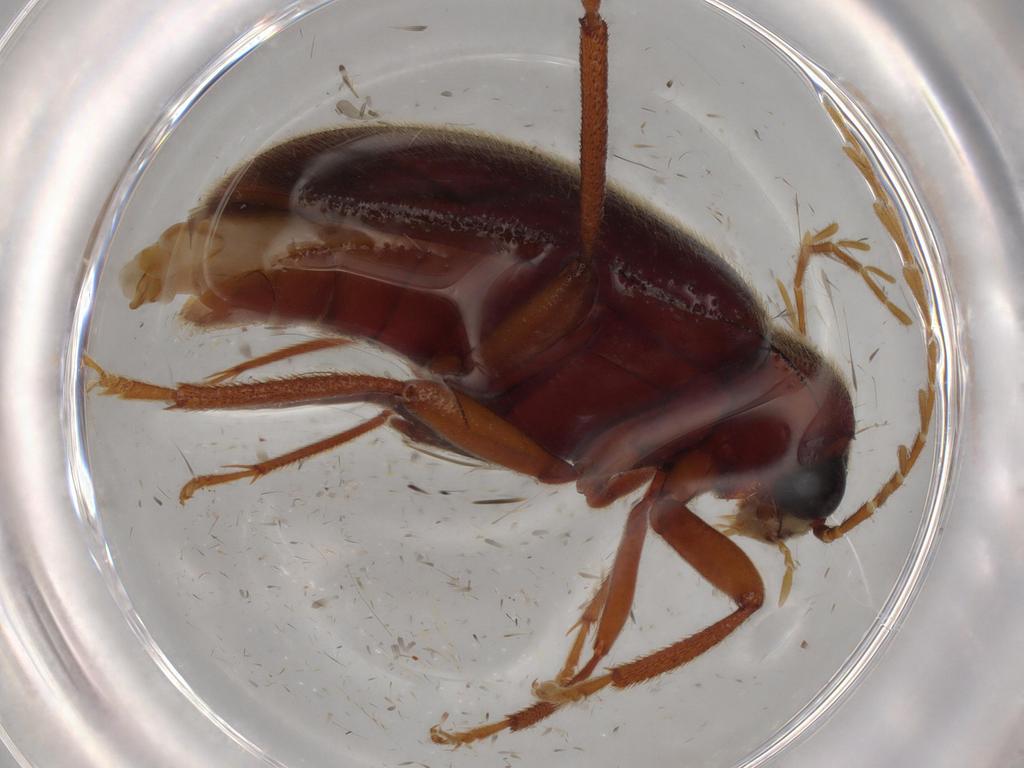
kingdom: Animalia
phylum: Arthropoda
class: Insecta
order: Coleoptera
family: Ptilodactylidae
